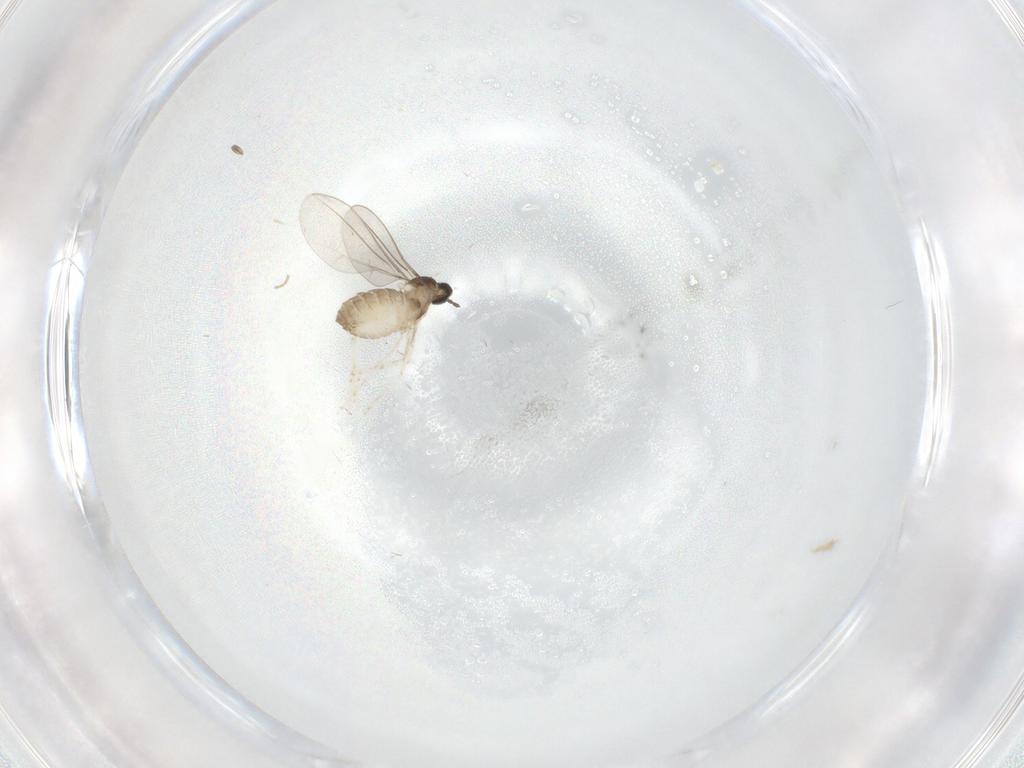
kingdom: Animalia
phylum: Arthropoda
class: Insecta
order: Diptera
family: Cecidomyiidae
